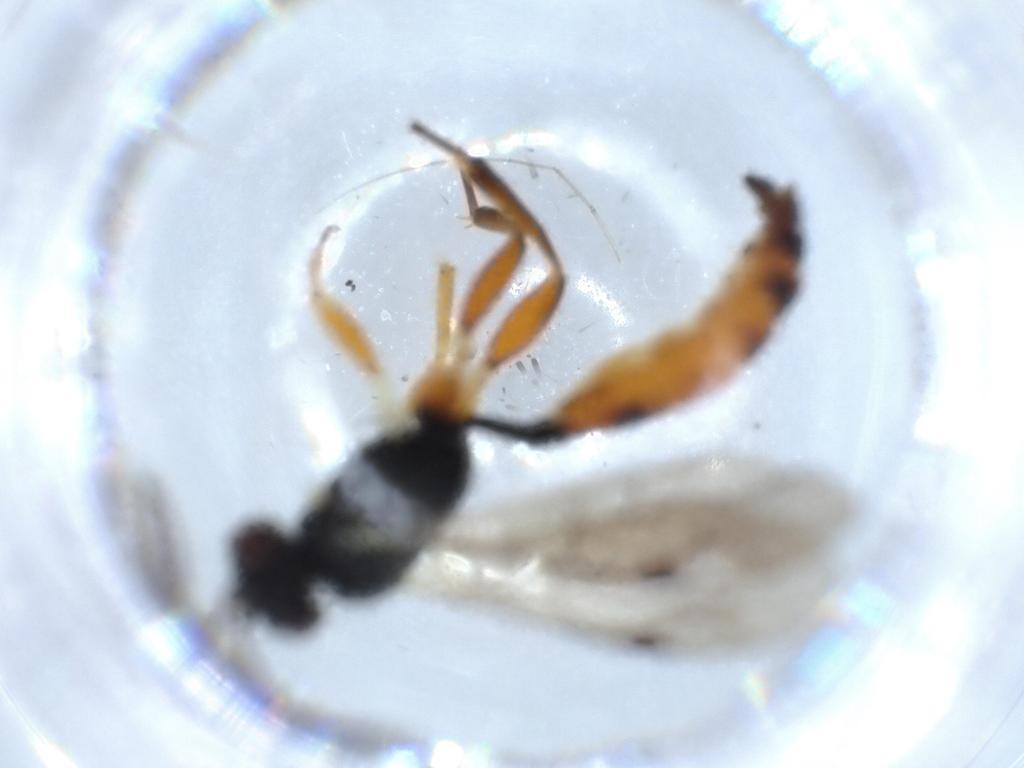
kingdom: Animalia
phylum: Arthropoda
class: Insecta
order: Hymenoptera
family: Ichneumonidae
